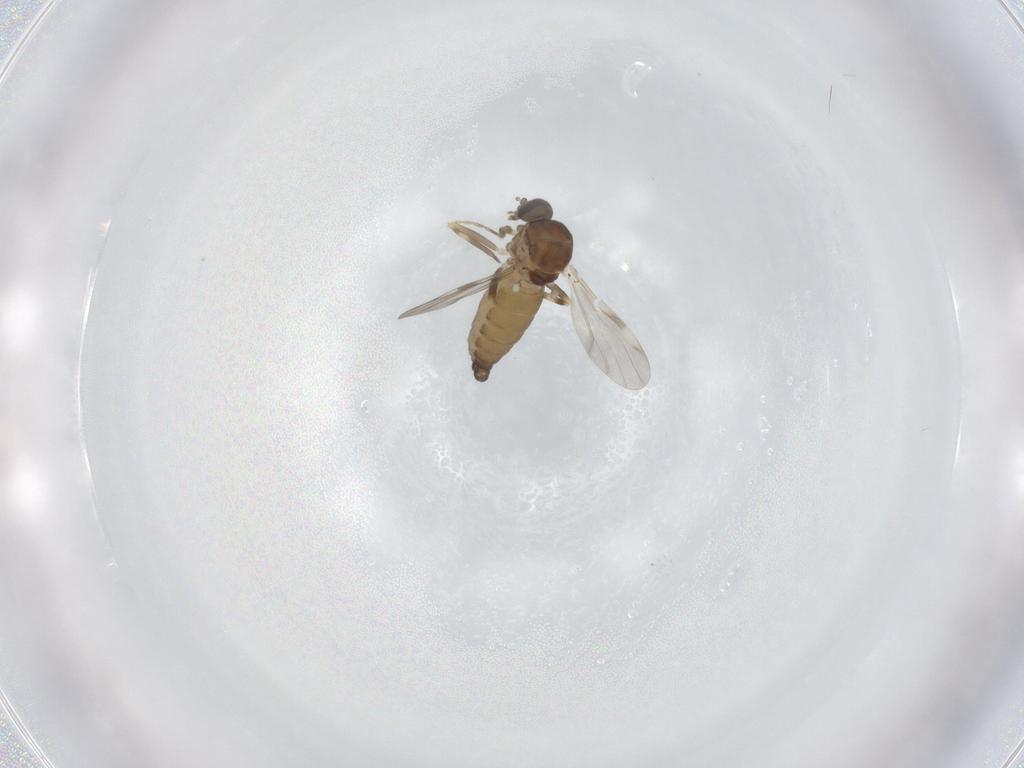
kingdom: Animalia
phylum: Arthropoda
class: Insecta
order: Diptera
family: Ceratopogonidae
